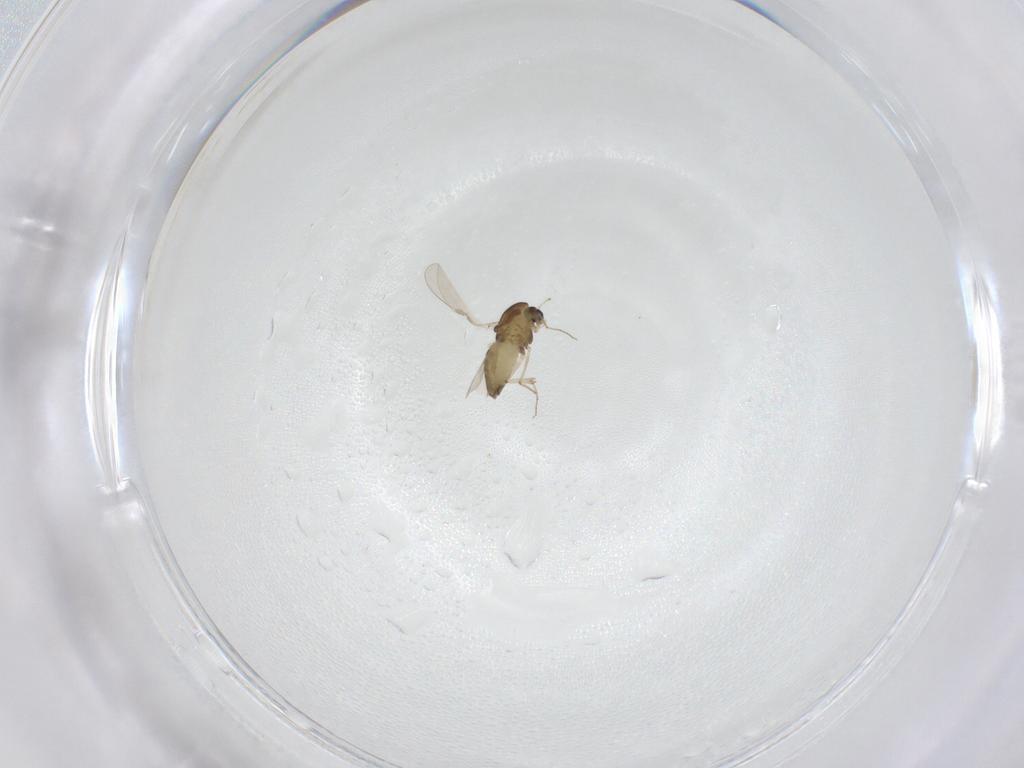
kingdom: Animalia
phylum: Arthropoda
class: Insecta
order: Diptera
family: Chironomidae
